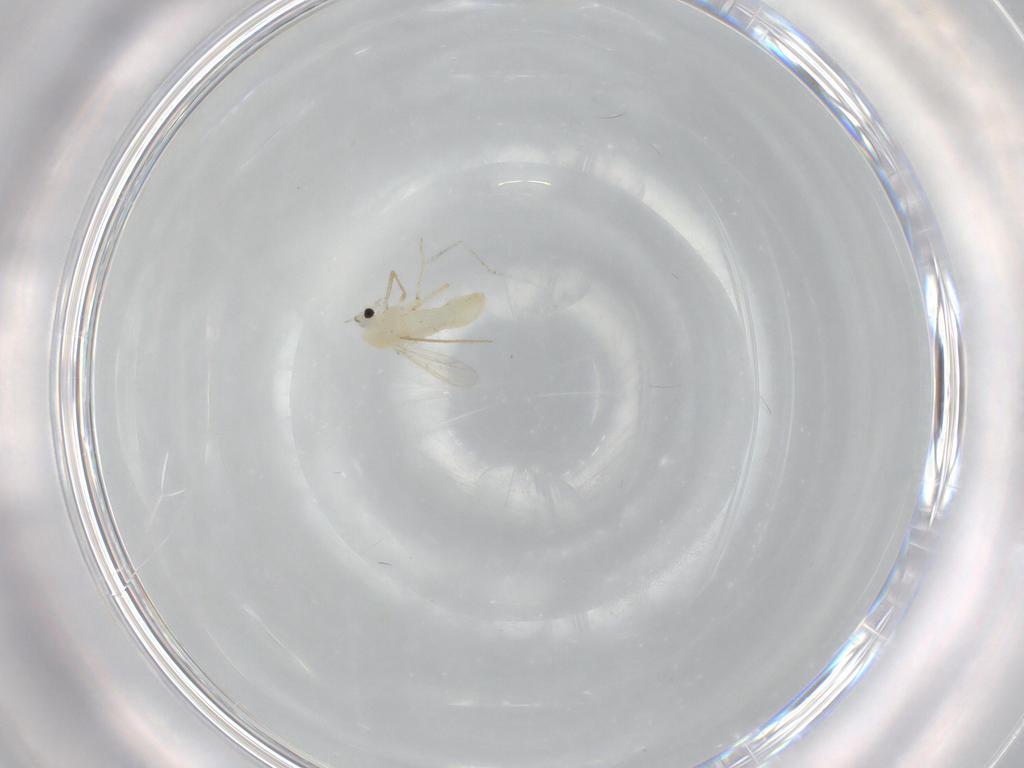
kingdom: Animalia
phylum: Arthropoda
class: Insecta
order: Diptera
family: Chironomidae
